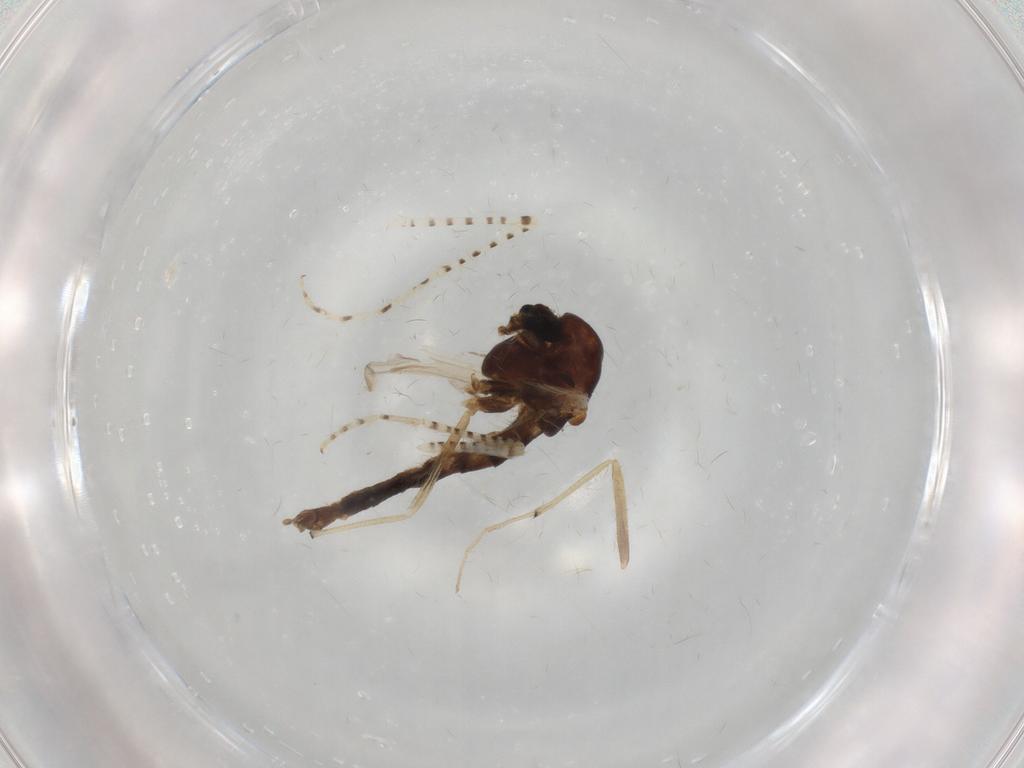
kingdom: Animalia
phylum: Arthropoda
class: Insecta
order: Diptera
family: Chironomidae
